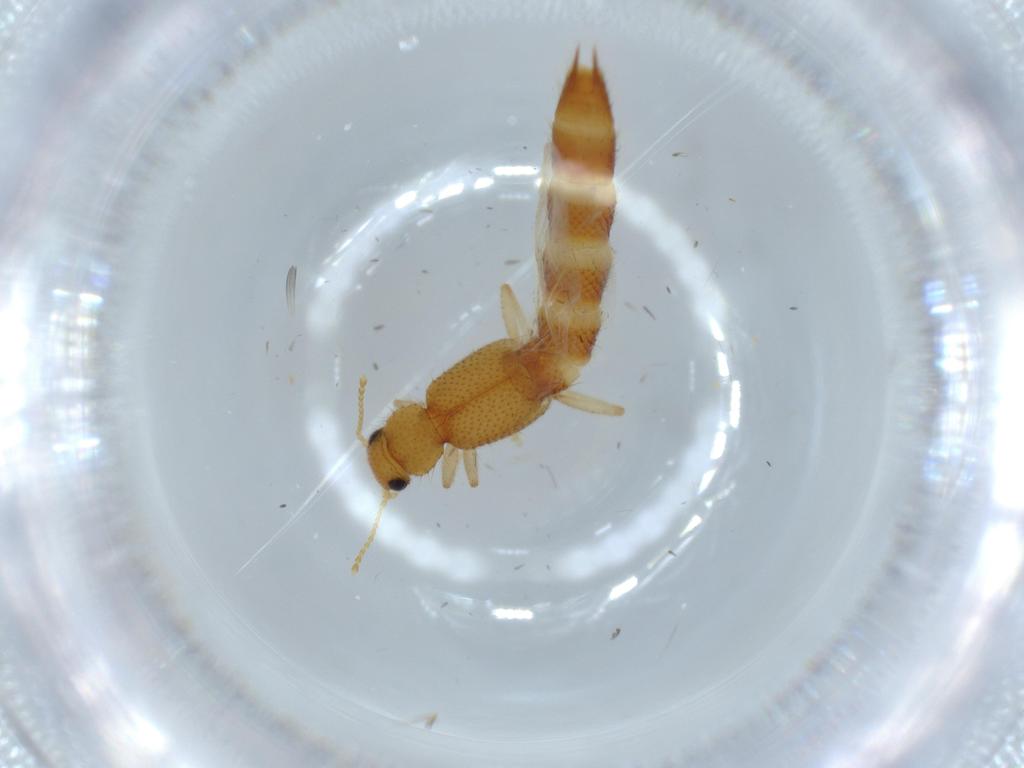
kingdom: Animalia
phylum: Arthropoda
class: Insecta
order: Coleoptera
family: Staphylinidae
